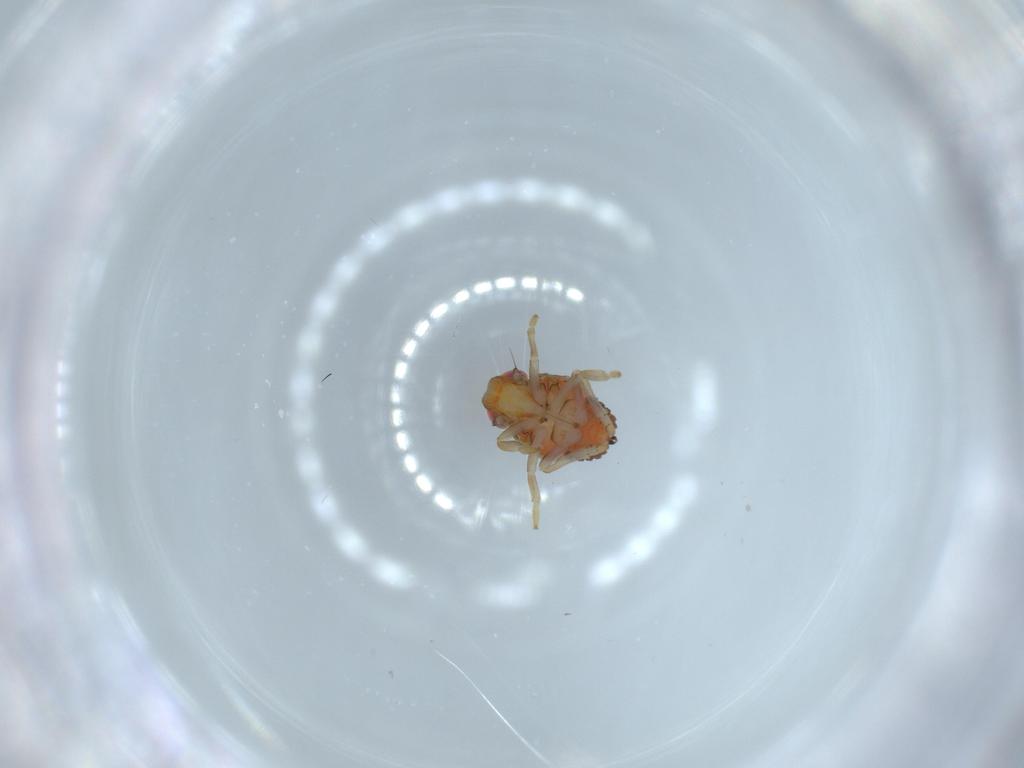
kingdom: Animalia
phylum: Arthropoda
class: Insecta
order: Hemiptera
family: Issidae
